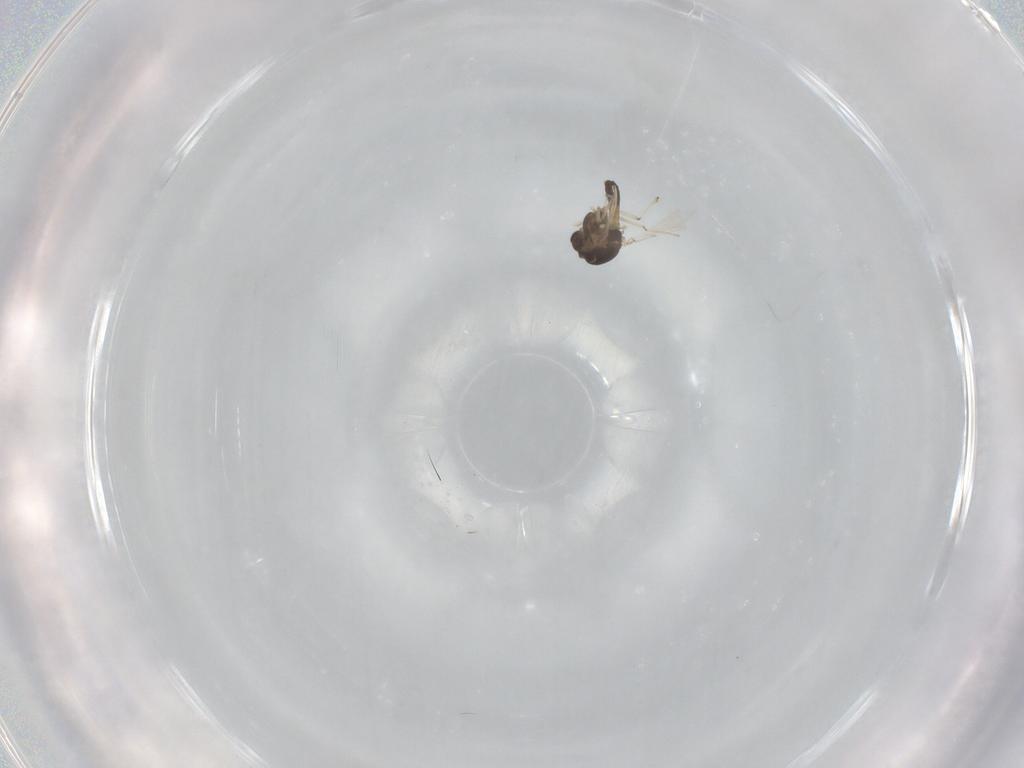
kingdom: Animalia
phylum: Arthropoda
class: Insecta
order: Diptera
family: Chironomidae
